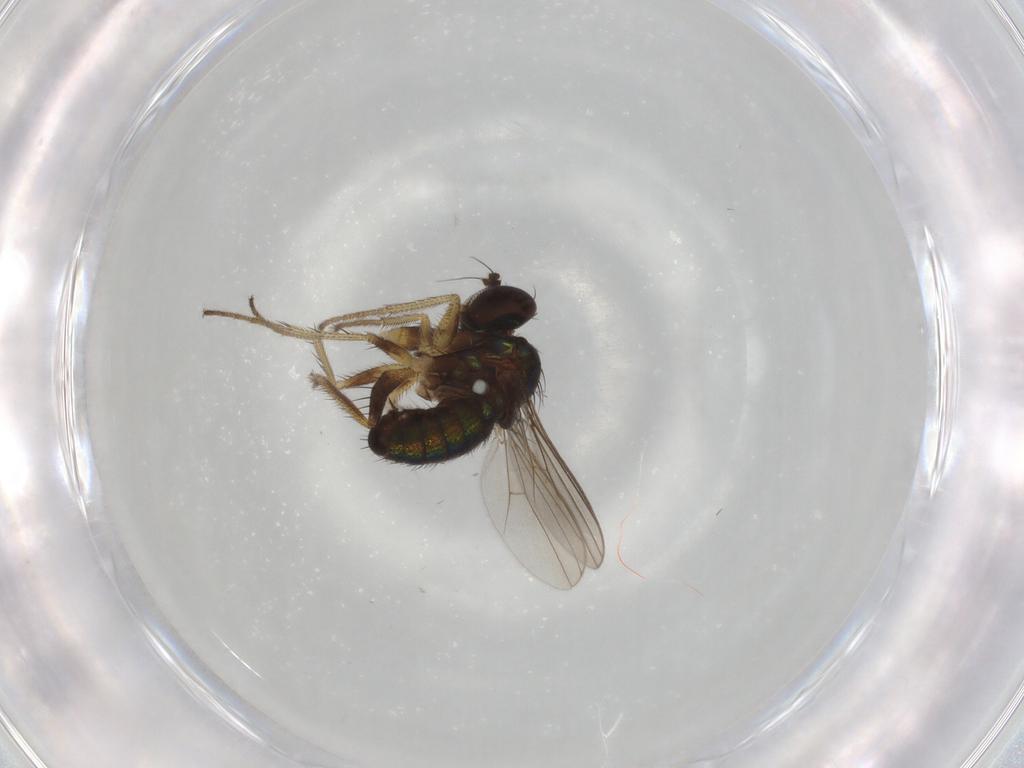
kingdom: Animalia
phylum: Arthropoda
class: Insecta
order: Diptera
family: Dolichopodidae
